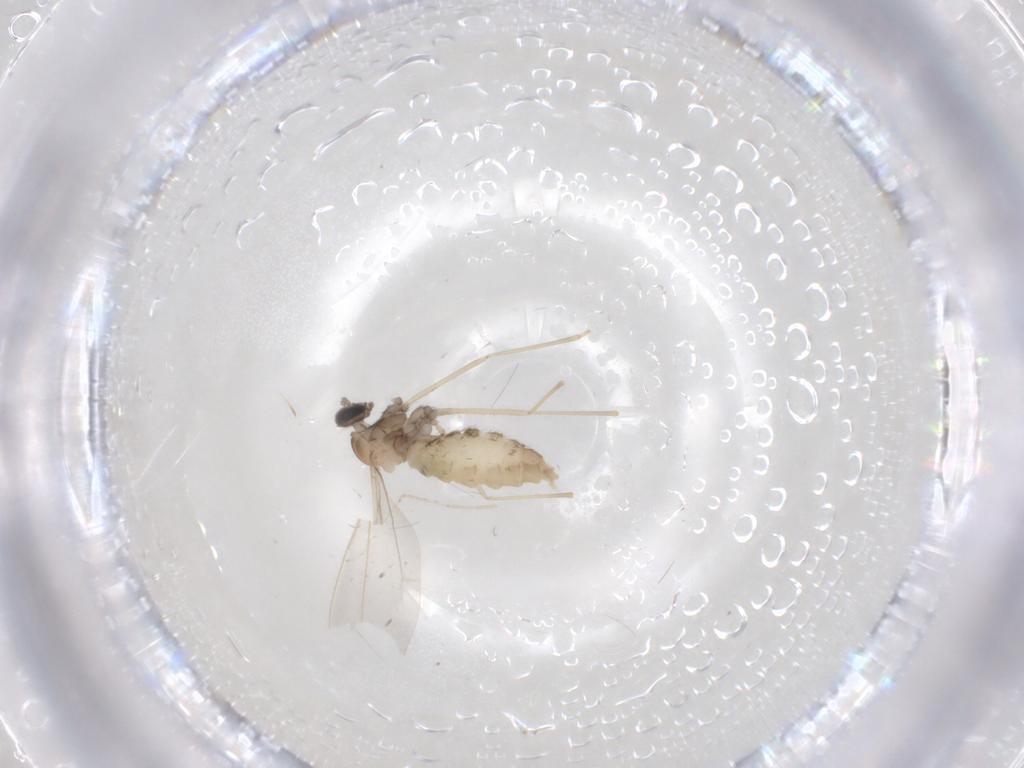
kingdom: Animalia
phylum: Arthropoda
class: Insecta
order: Diptera
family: Cecidomyiidae
